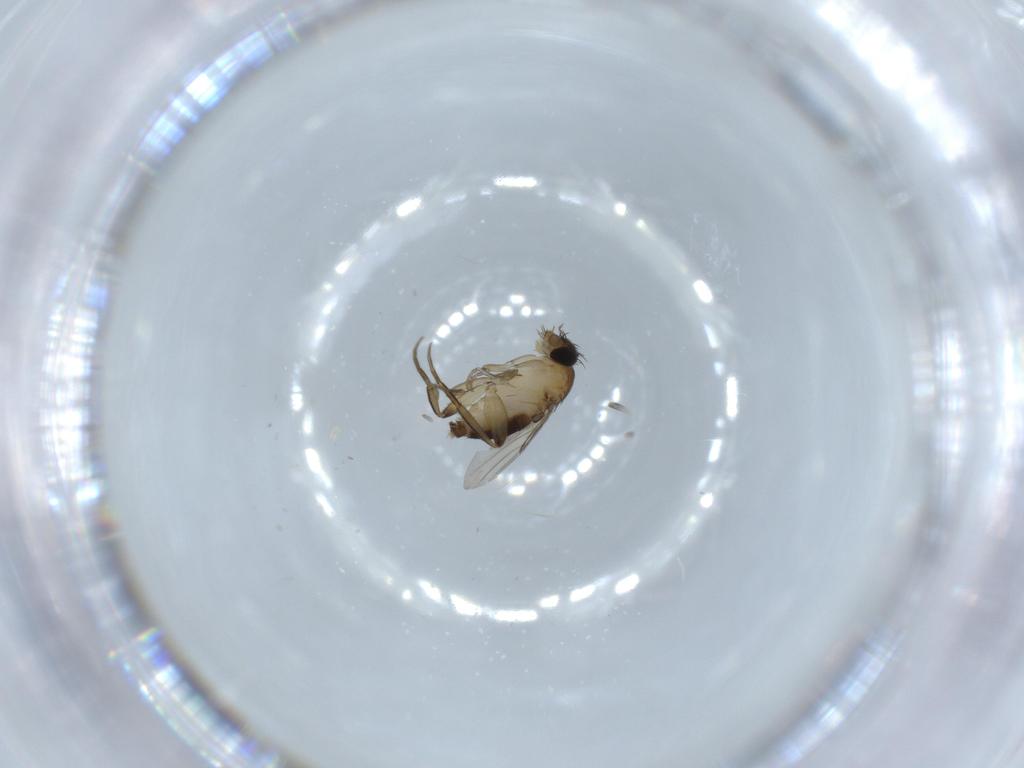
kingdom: Animalia
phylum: Arthropoda
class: Insecta
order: Diptera
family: Phoridae
